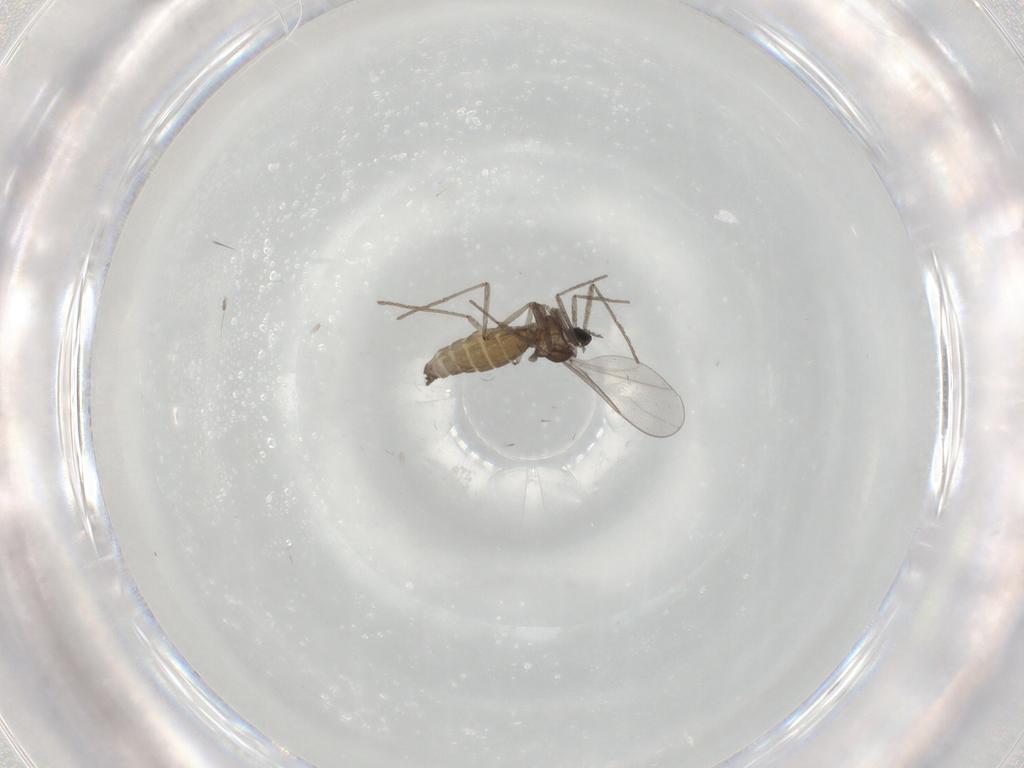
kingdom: Animalia
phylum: Arthropoda
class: Insecta
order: Diptera
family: Cecidomyiidae
